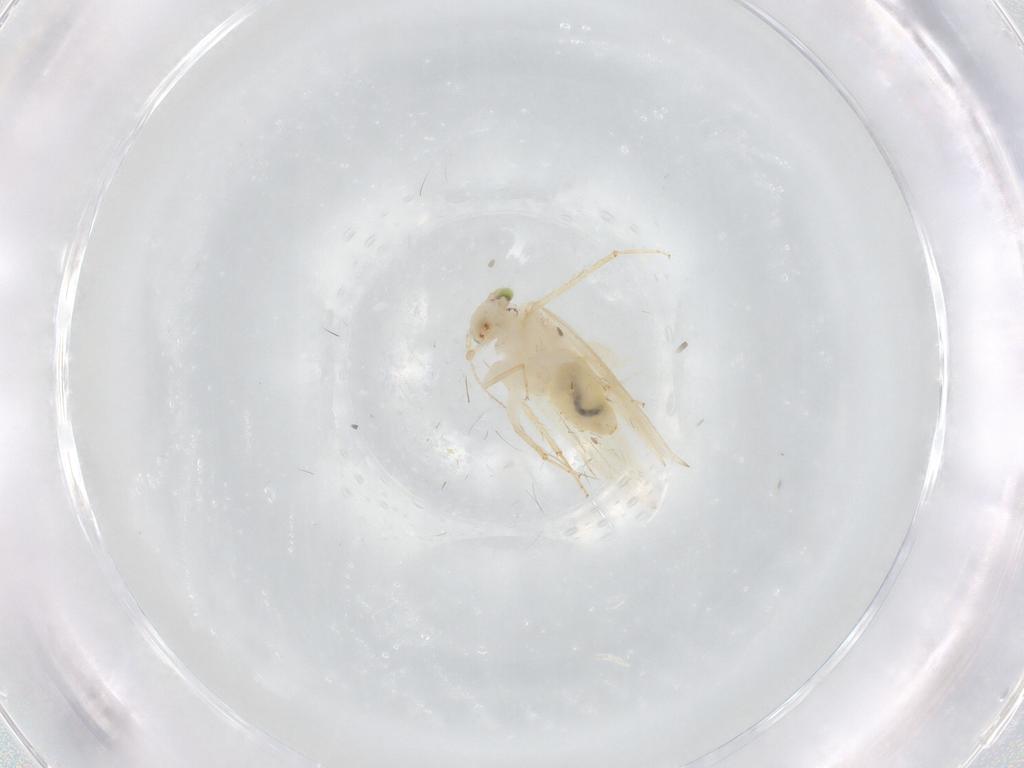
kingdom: Animalia
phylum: Arthropoda
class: Insecta
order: Psocodea
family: Lepidopsocidae
